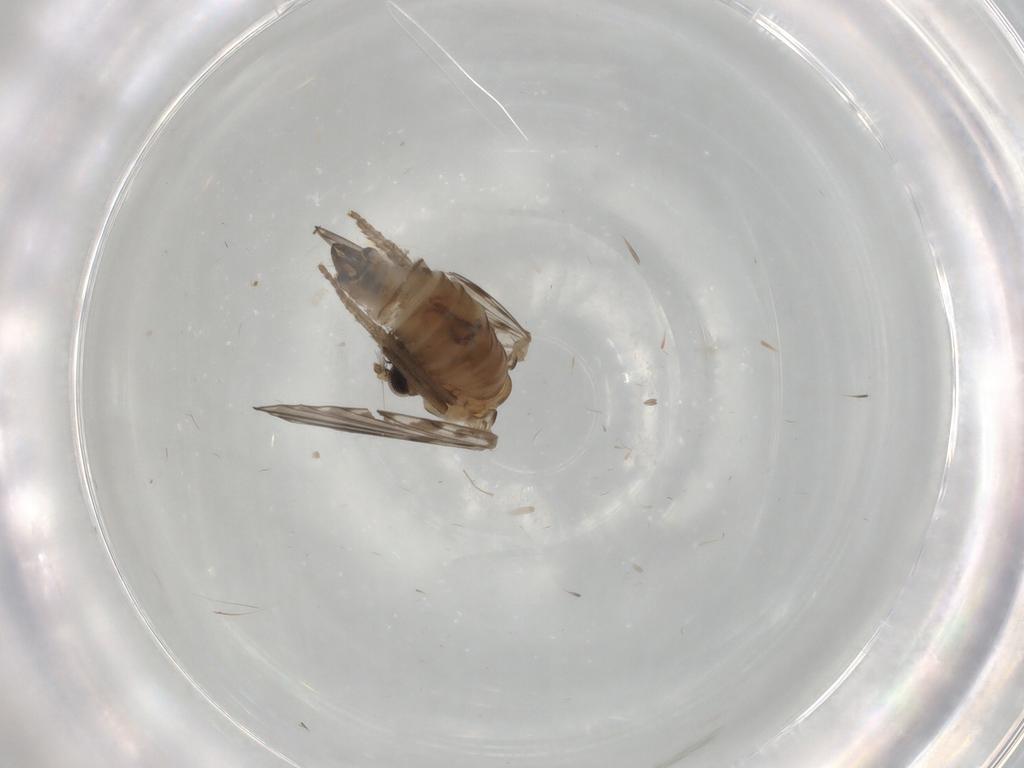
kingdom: Animalia
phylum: Arthropoda
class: Insecta
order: Diptera
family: Psychodidae
